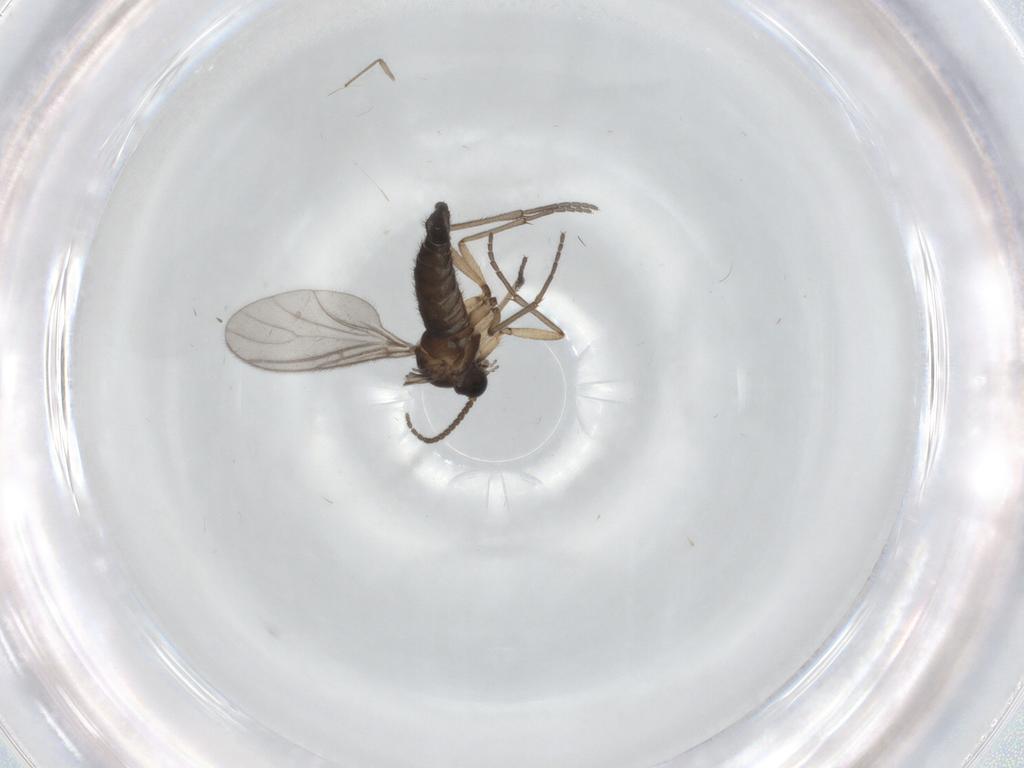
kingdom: Animalia
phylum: Arthropoda
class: Insecta
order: Diptera
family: Sciaridae
